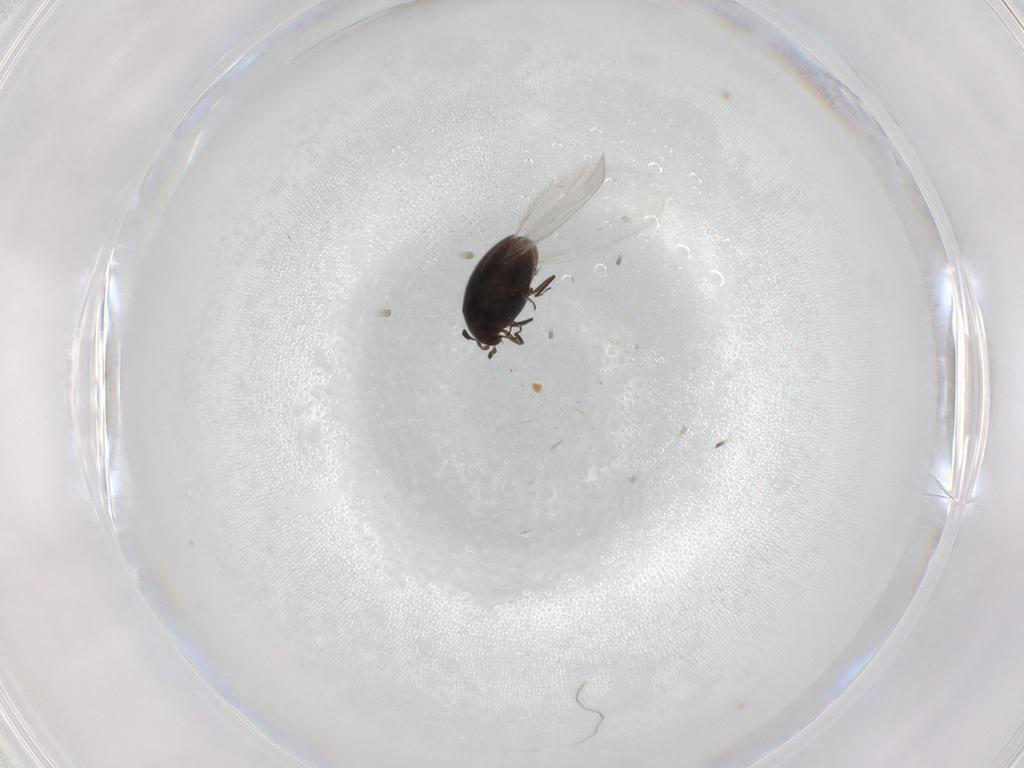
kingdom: Animalia
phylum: Arthropoda
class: Insecta
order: Coleoptera
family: Corylophidae
